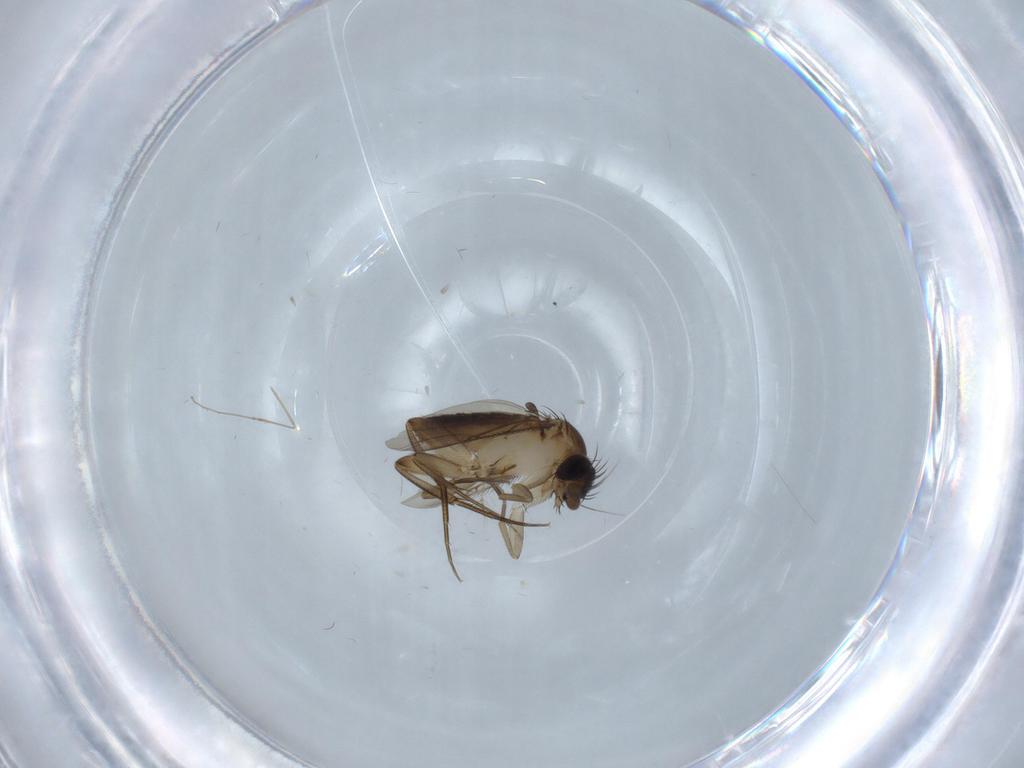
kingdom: Animalia
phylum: Arthropoda
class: Insecta
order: Diptera
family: Phoridae
